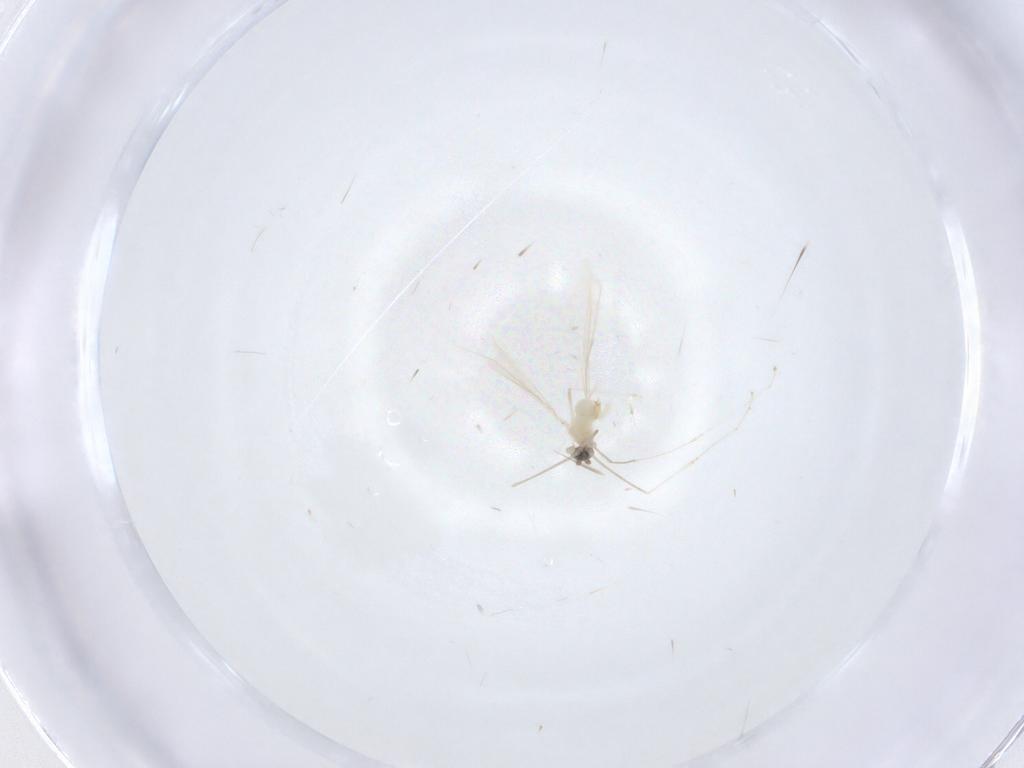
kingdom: Animalia
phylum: Arthropoda
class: Insecta
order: Diptera
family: Cecidomyiidae
